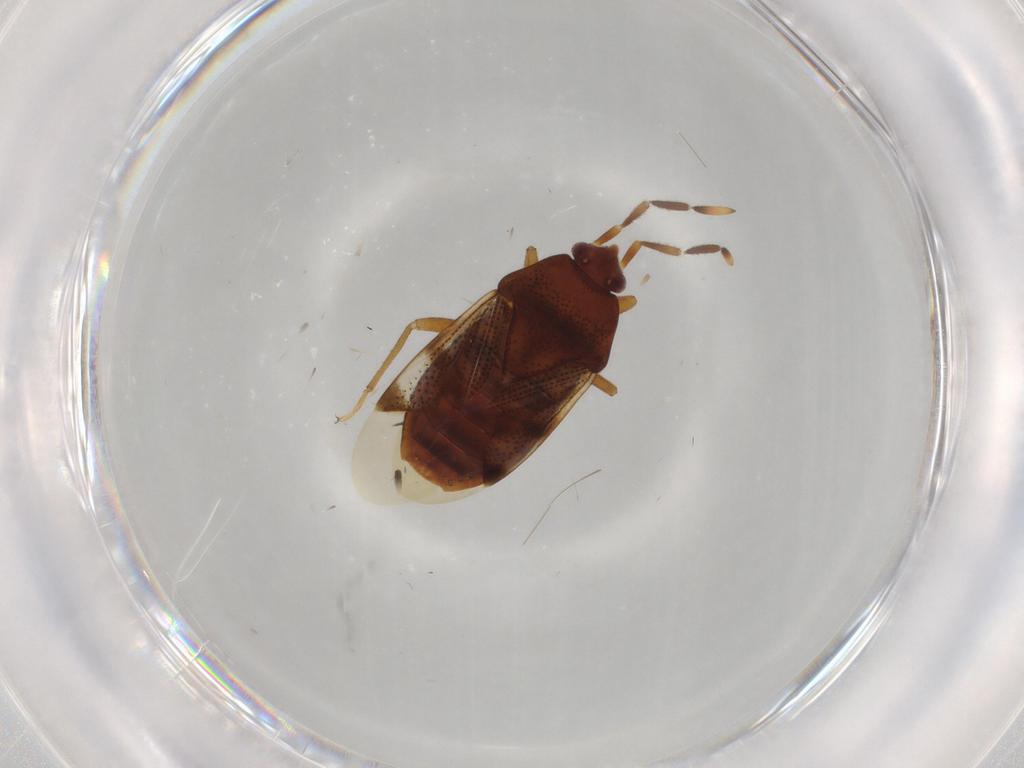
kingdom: Animalia
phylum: Arthropoda
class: Insecta
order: Hemiptera
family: Rhyparochromidae
